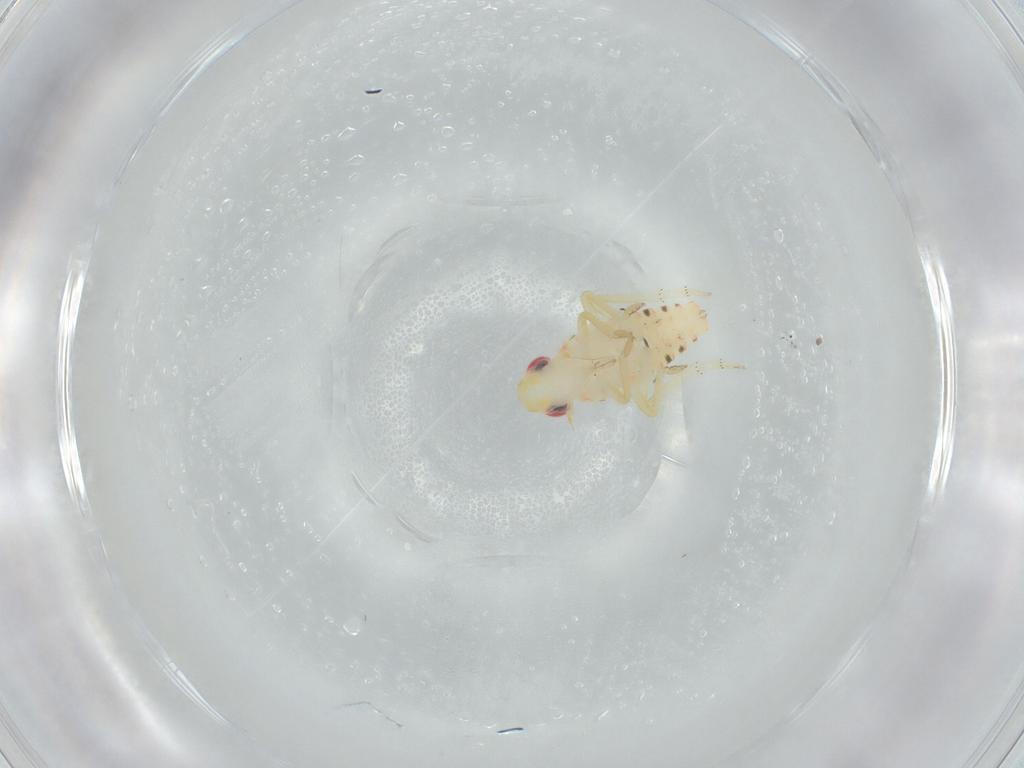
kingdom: Animalia
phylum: Arthropoda
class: Insecta
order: Hemiptera
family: Tropiduchidae
